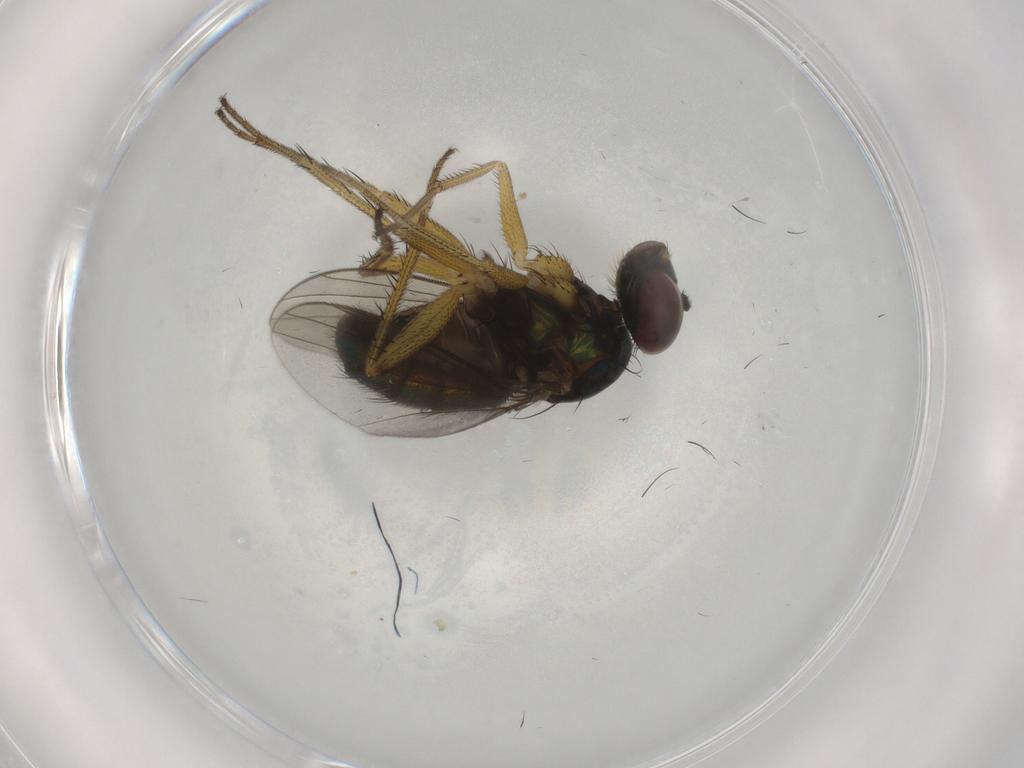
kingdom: Animalia
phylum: Arthropoda
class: Insecta
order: Diptera
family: Dolichopodidae
